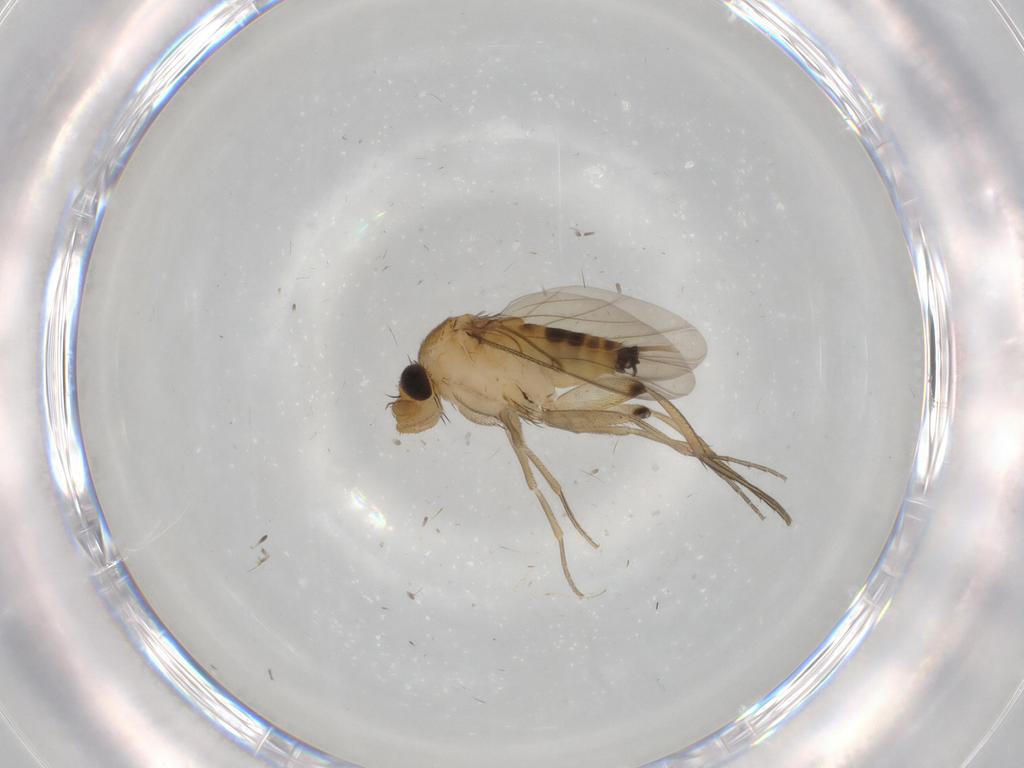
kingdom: Animalia
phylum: Arthropoda
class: Insecta
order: Diptera
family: Phoridae
